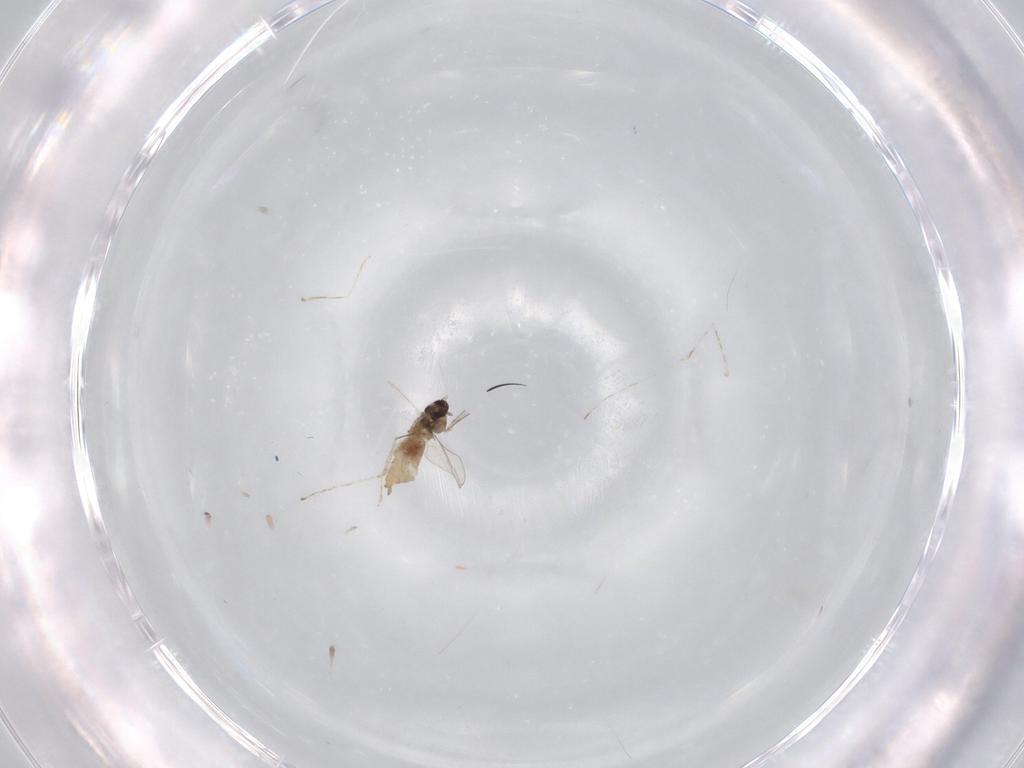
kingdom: Animalia
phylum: Arthropoda
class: Insecta
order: Diptera
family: Cecidomyiidae
